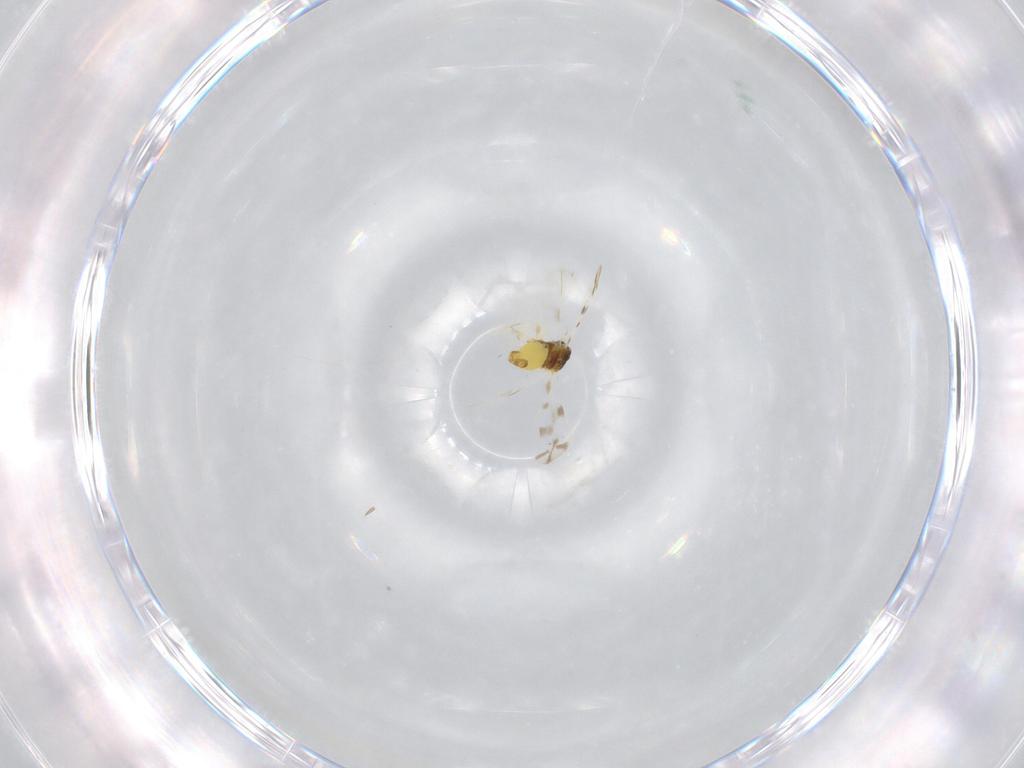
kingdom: Animalia
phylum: Arthropoda
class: Insecta
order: Hemiptera
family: Aleyrodidae
